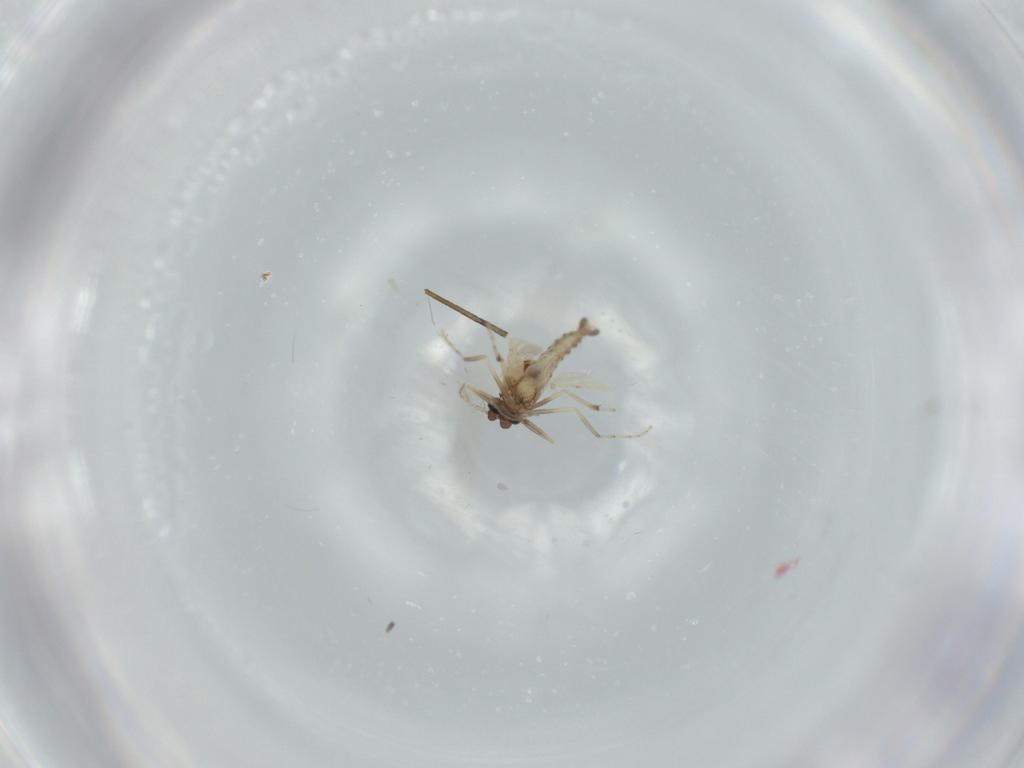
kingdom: Animalia
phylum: Arthropoda
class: Insecta
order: Diptera
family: Ceratopogonidae
